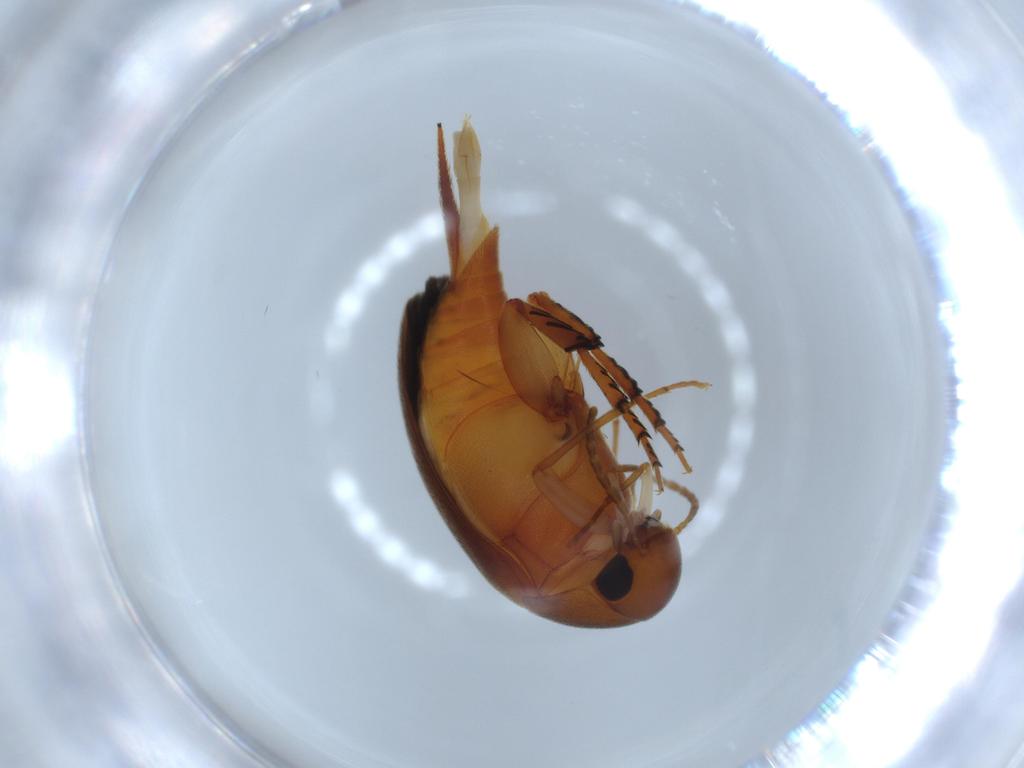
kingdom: Animalia
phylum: Arthropoda
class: Insecta
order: Coleoptera
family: Mordellidae
